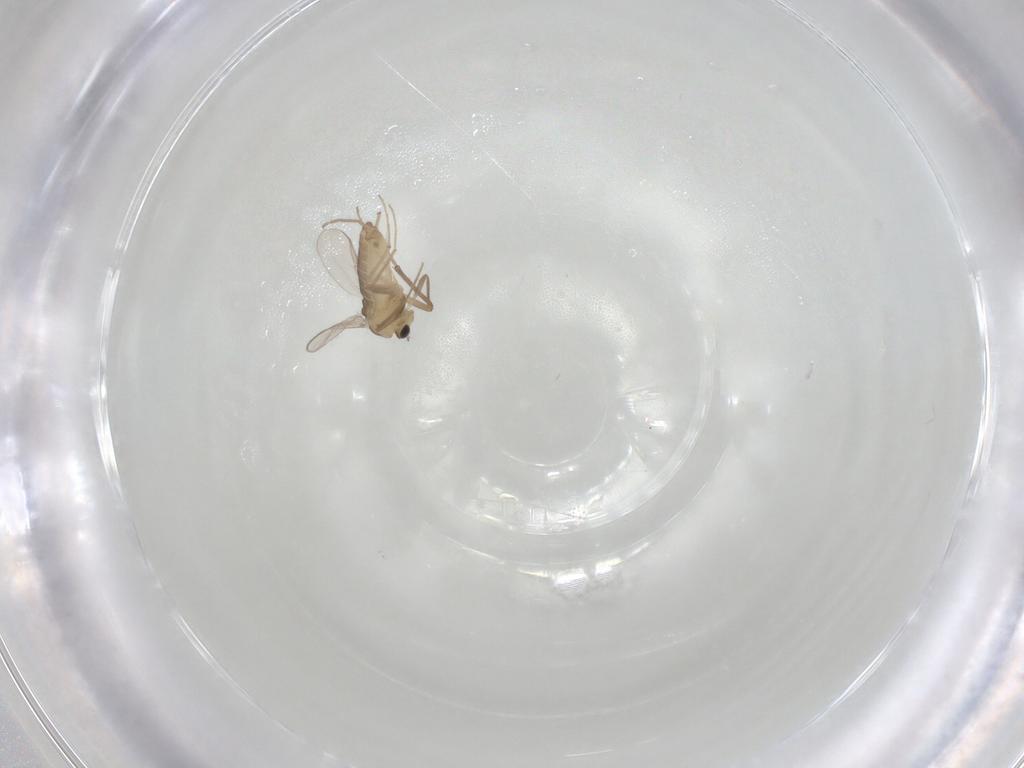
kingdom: Animalia
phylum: Arthropoda
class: Insecta
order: Diptera
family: Chironomidae
